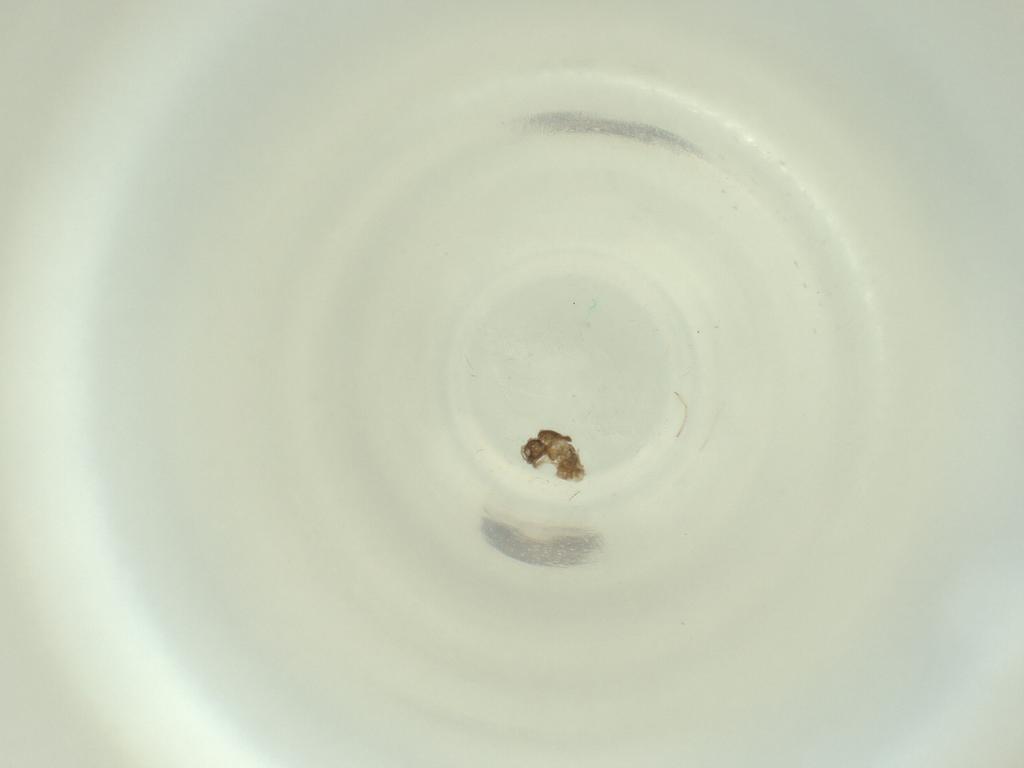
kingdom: Animalia
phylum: Arthropoda
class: Insecta
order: Diptera
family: Cecidomyiidae
